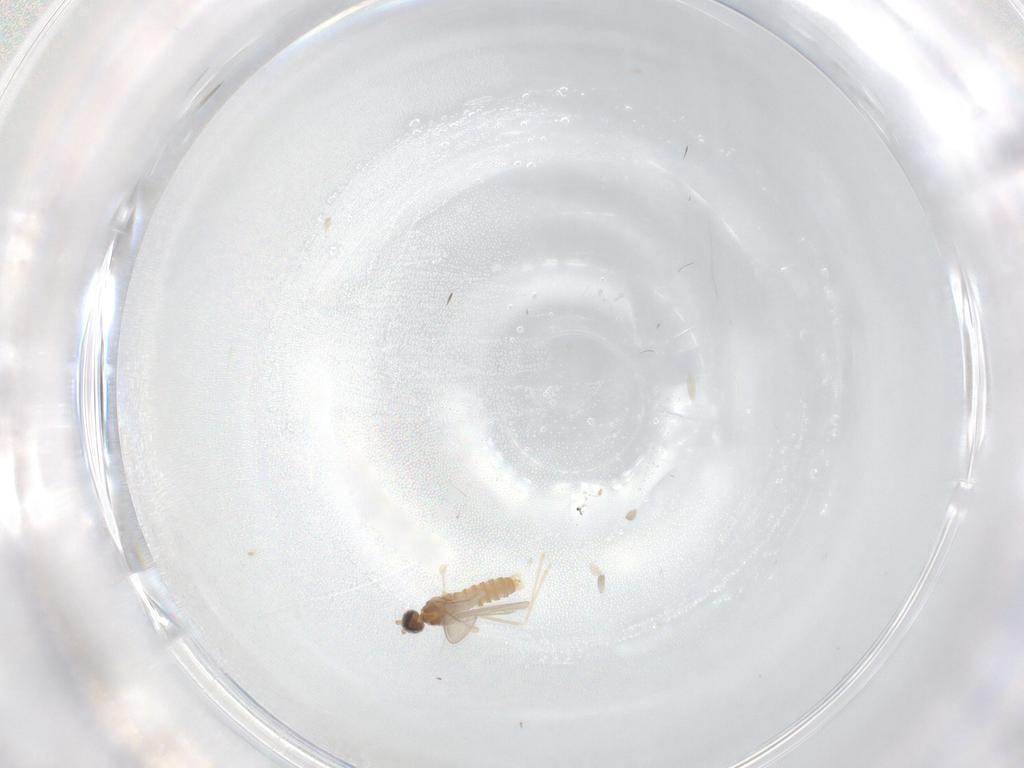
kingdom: Animalia
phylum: Arthropoda
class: Insecta
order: Diptera
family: Cecidomyiidae
